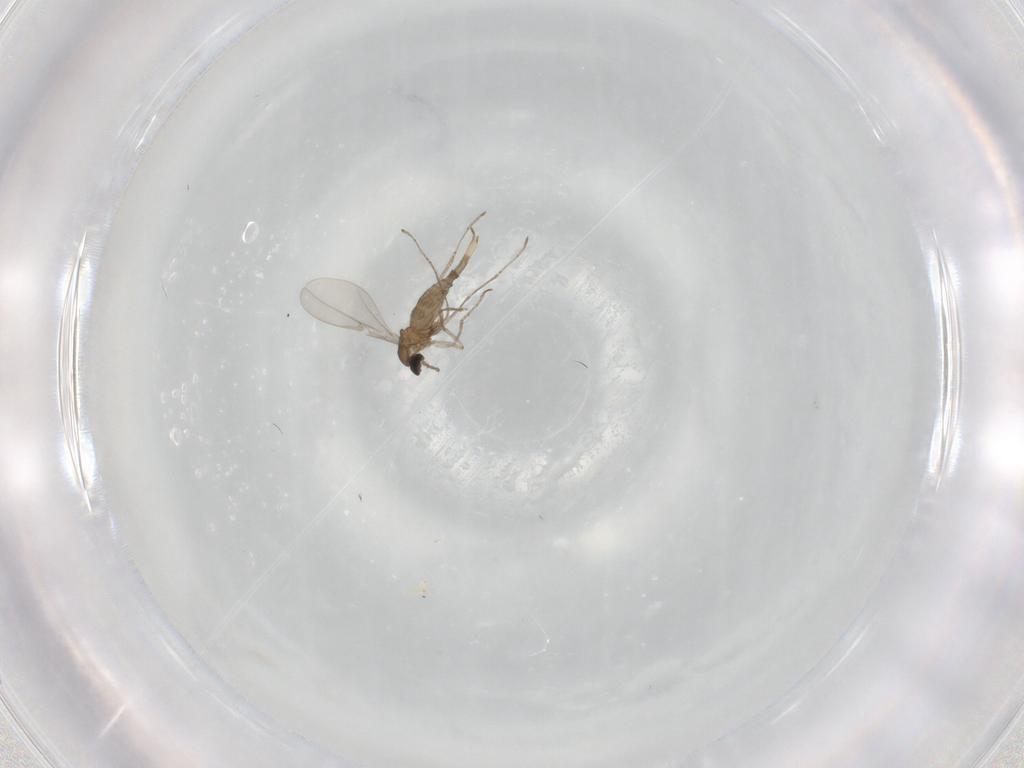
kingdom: Animalia
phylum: Arthropoda
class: Insecta
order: Diptera
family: Cecidomyiidae
